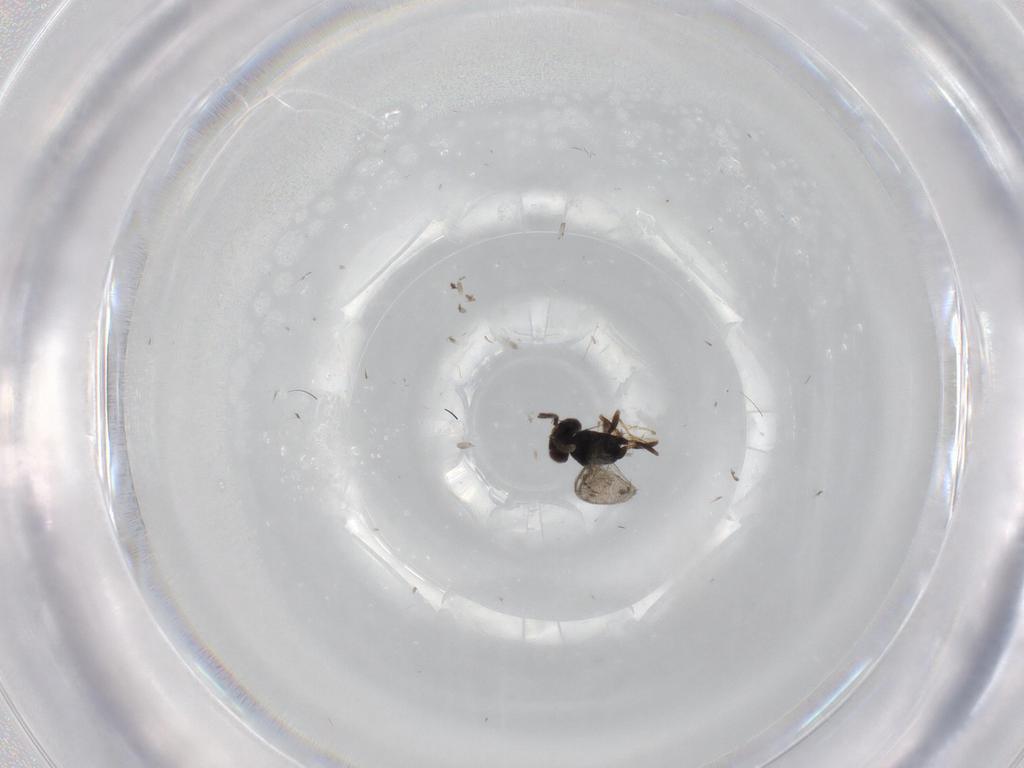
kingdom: Animalia
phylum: Arthropoda
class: Insecta
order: Hymenoptera
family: Pteromalidae
